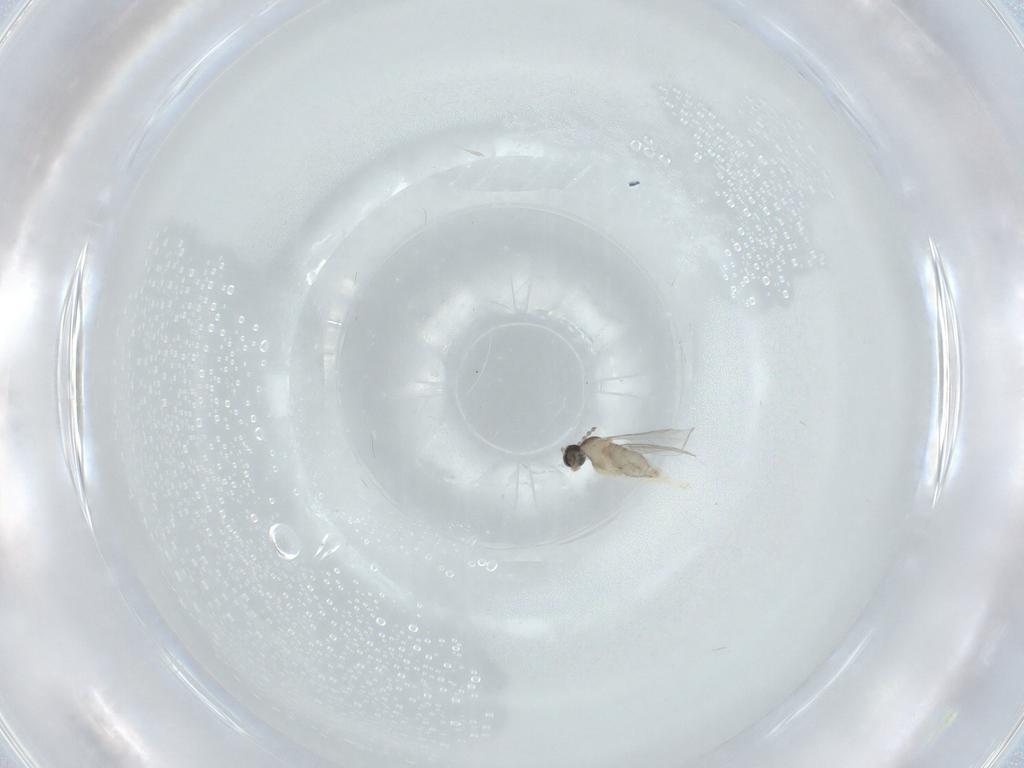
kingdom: Animalia
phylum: Arthropoda
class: Insecta
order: Diptera
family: Cecidomyiidae
